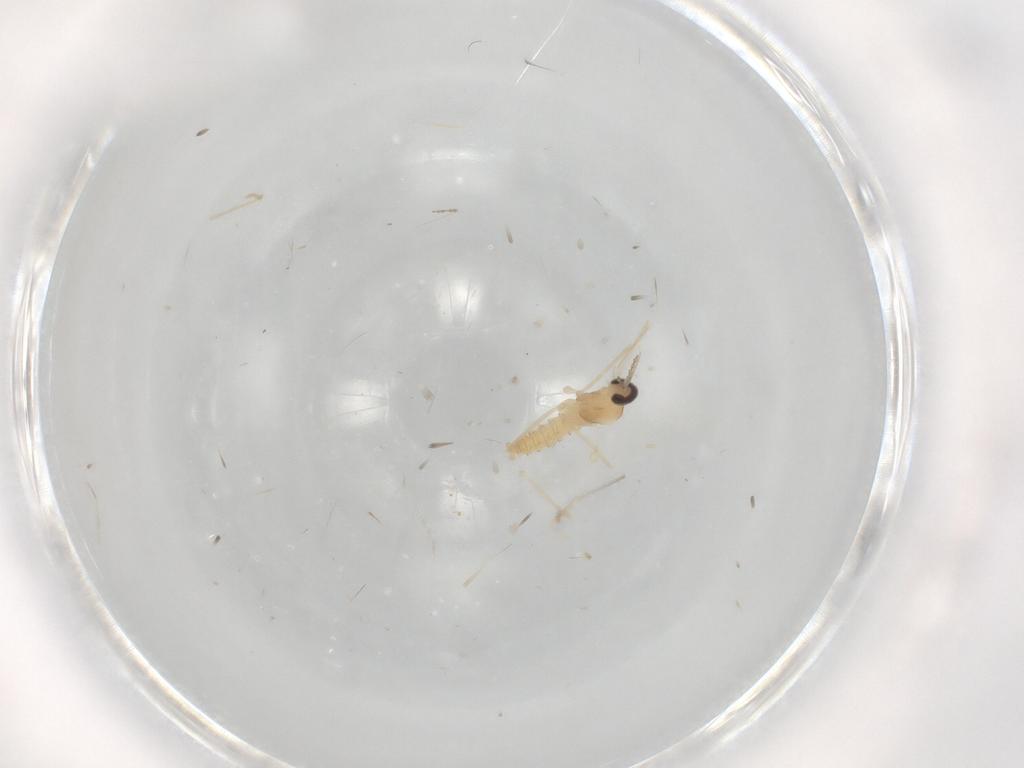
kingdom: Animalia
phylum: Arthropoda
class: Insecta
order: Diptera
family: Cecidomyiidae
